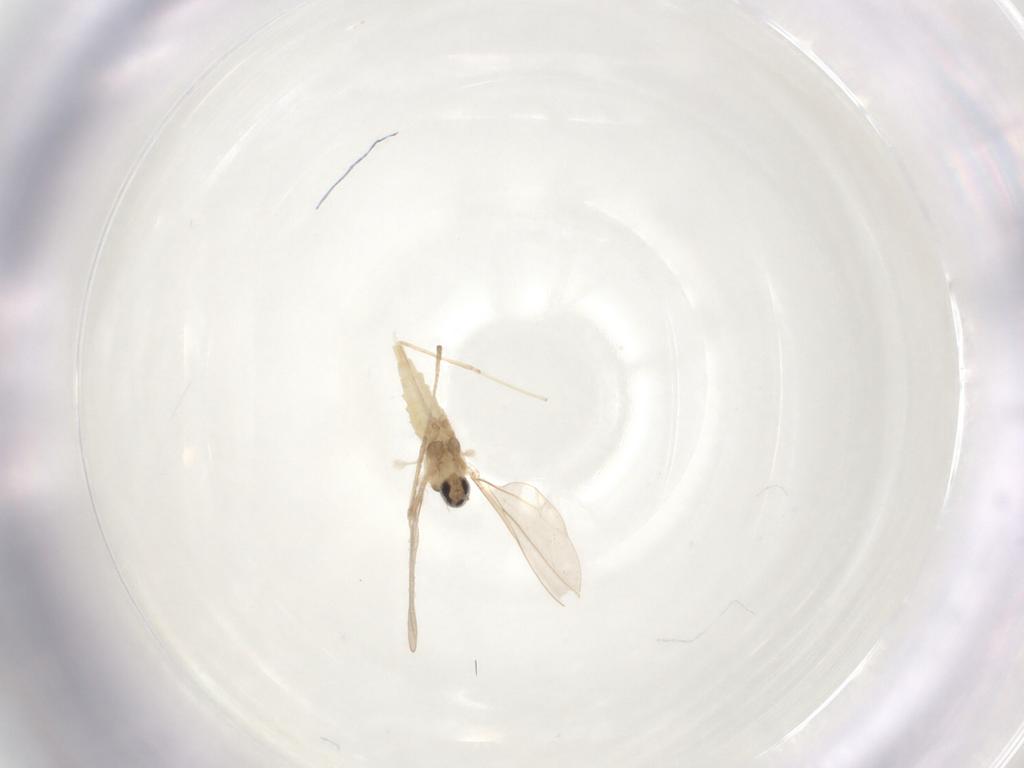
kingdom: Animalia
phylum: Arthropoda
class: Insecta
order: Diptera
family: Cecidomyiidae
